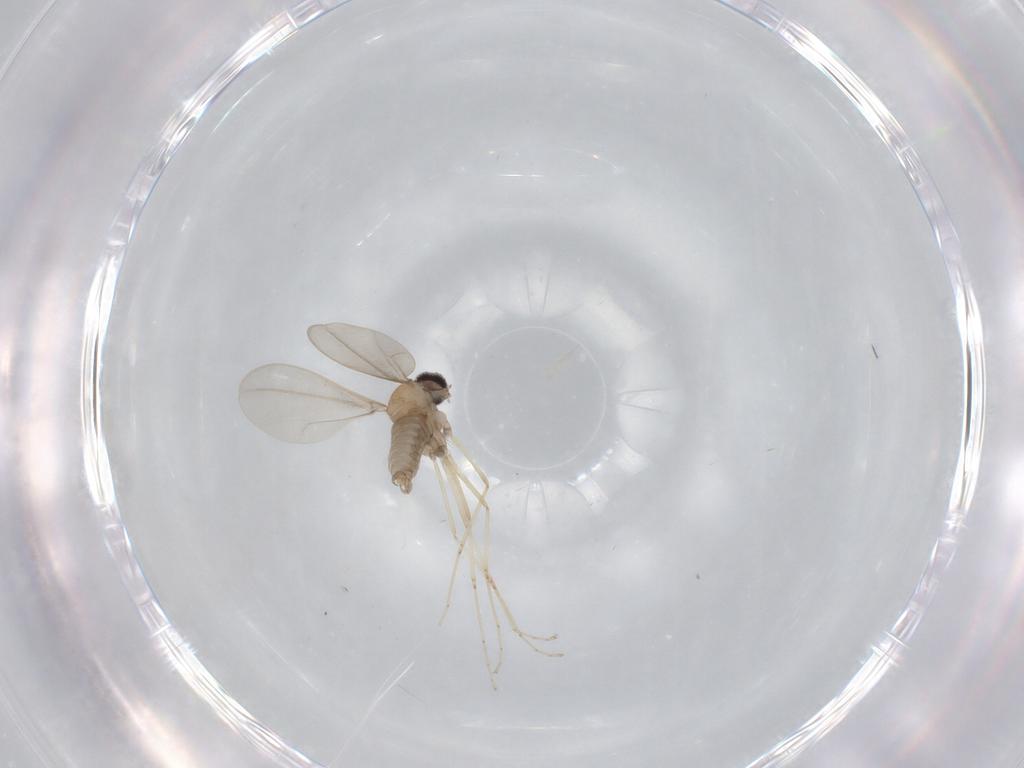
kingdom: Animalia
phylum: Arthropoda
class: Insecta
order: Diptera
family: Cecidomyiidae
